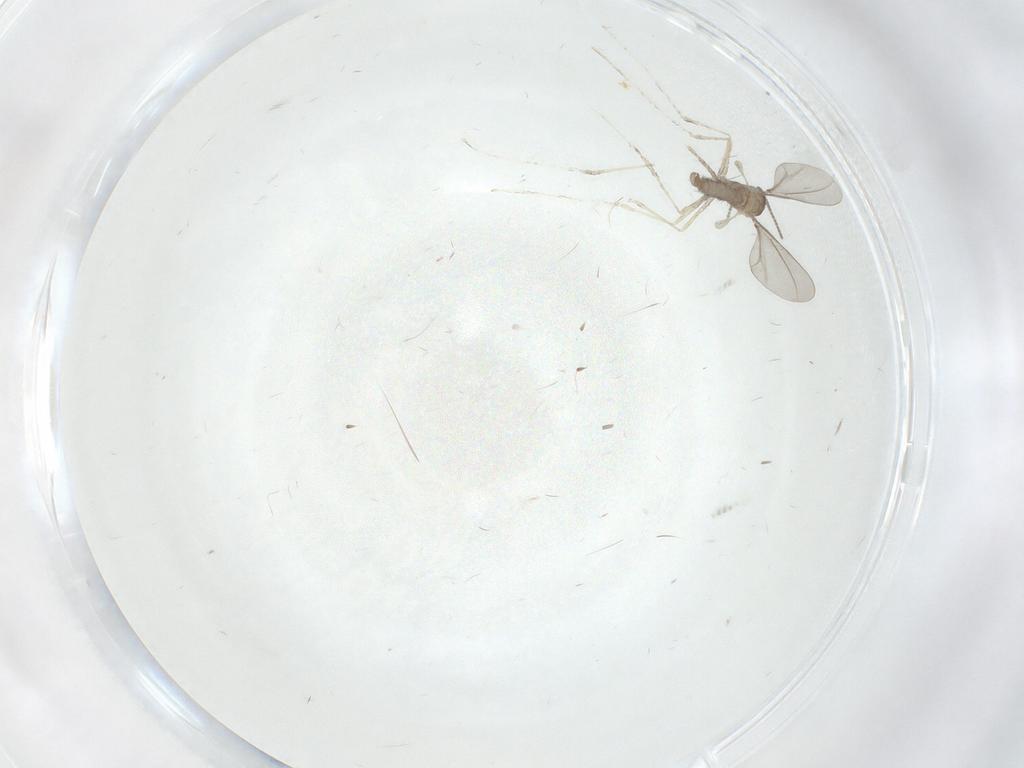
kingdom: Animalia
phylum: Arthropoda
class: Insecta
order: Diptera
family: Cecidomyiidae
